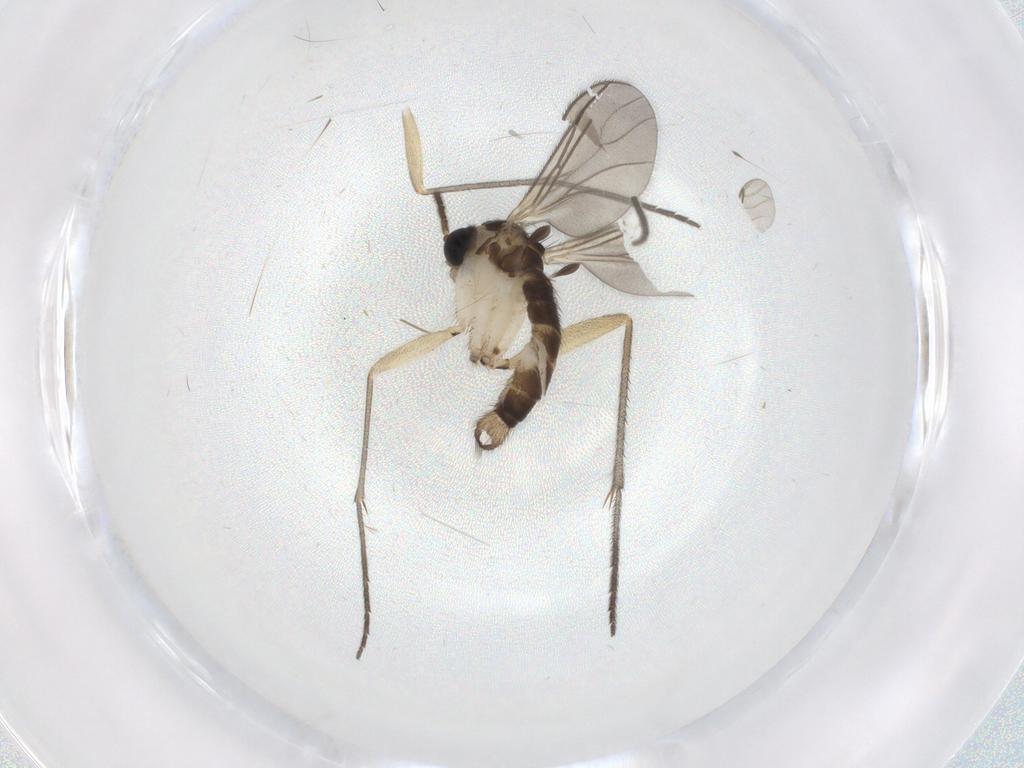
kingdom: Animalia
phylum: Arthropoda
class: Insecta
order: Diptera
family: Sciaridae
